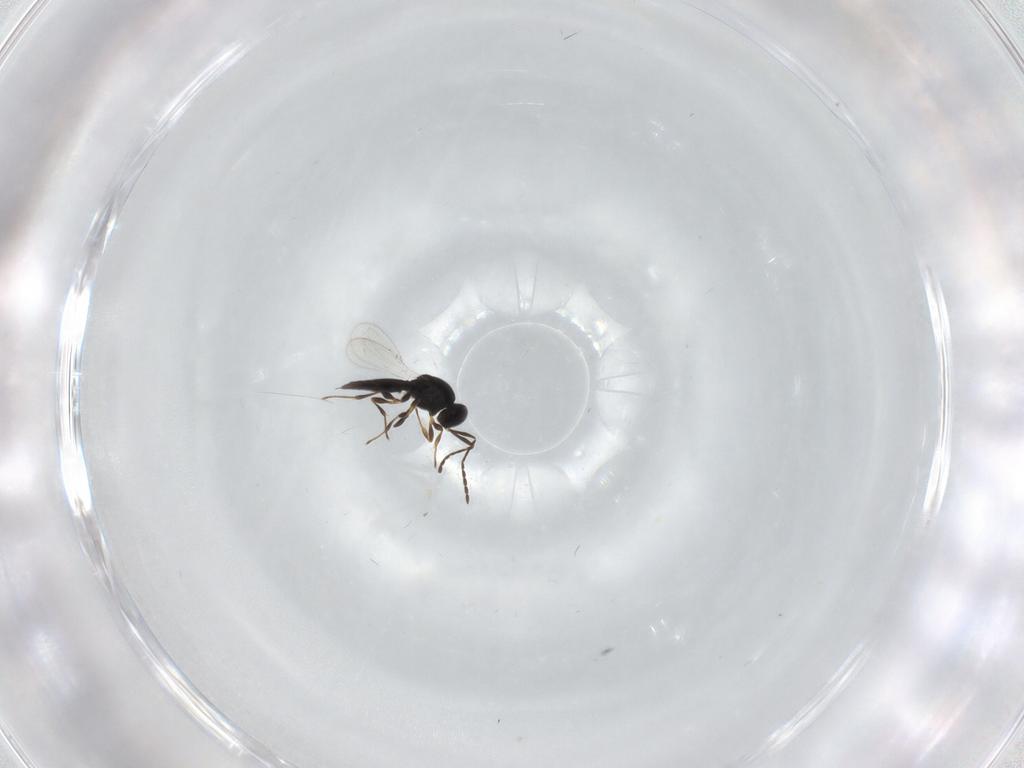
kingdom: Animalia
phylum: Arthropoda
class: Insecta
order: Hymenoptera
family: Platygastridae
